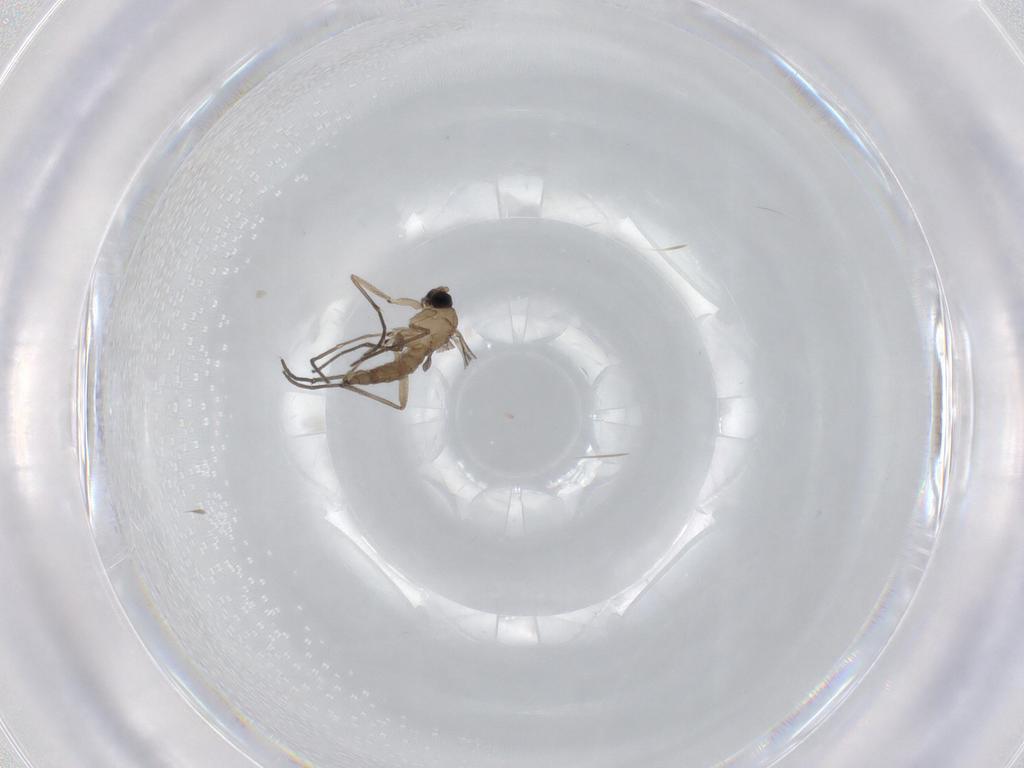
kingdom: Animalia
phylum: Arthropoda
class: Insecta
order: Diptera
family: Sciaridae
